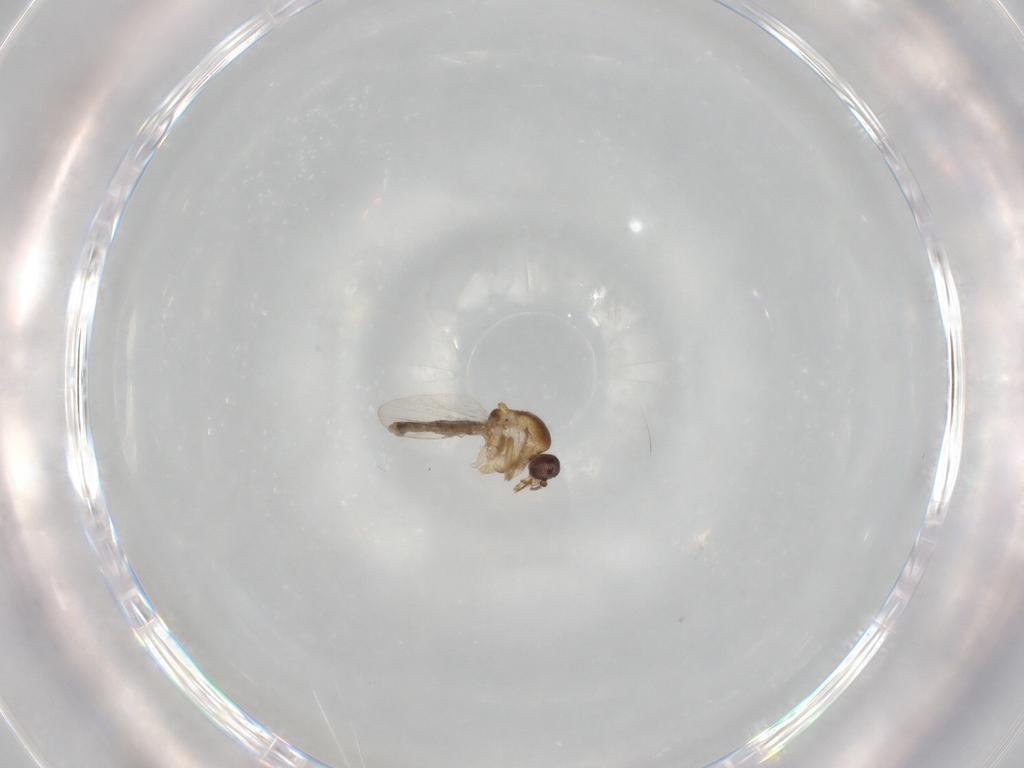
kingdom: Animalia
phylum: Arthropoda
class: Insecta
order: Diptera
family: Ceratopogonidae
